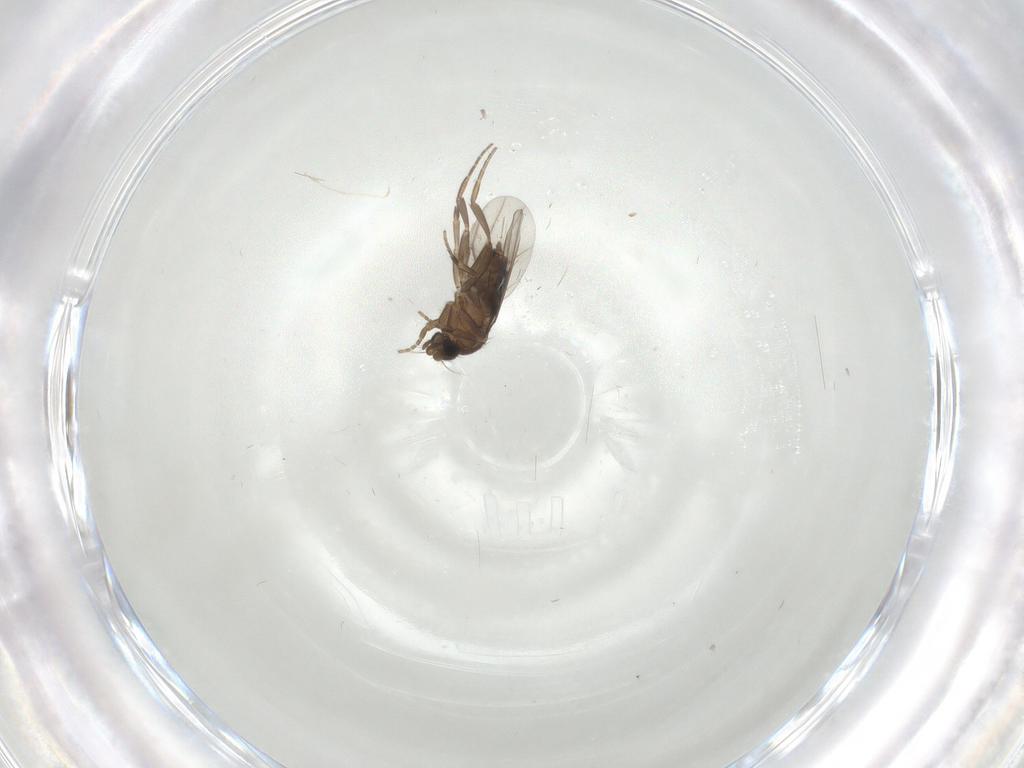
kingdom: Animalia
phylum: Arthropoda
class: Insecta
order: Diptera
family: Phoridae
